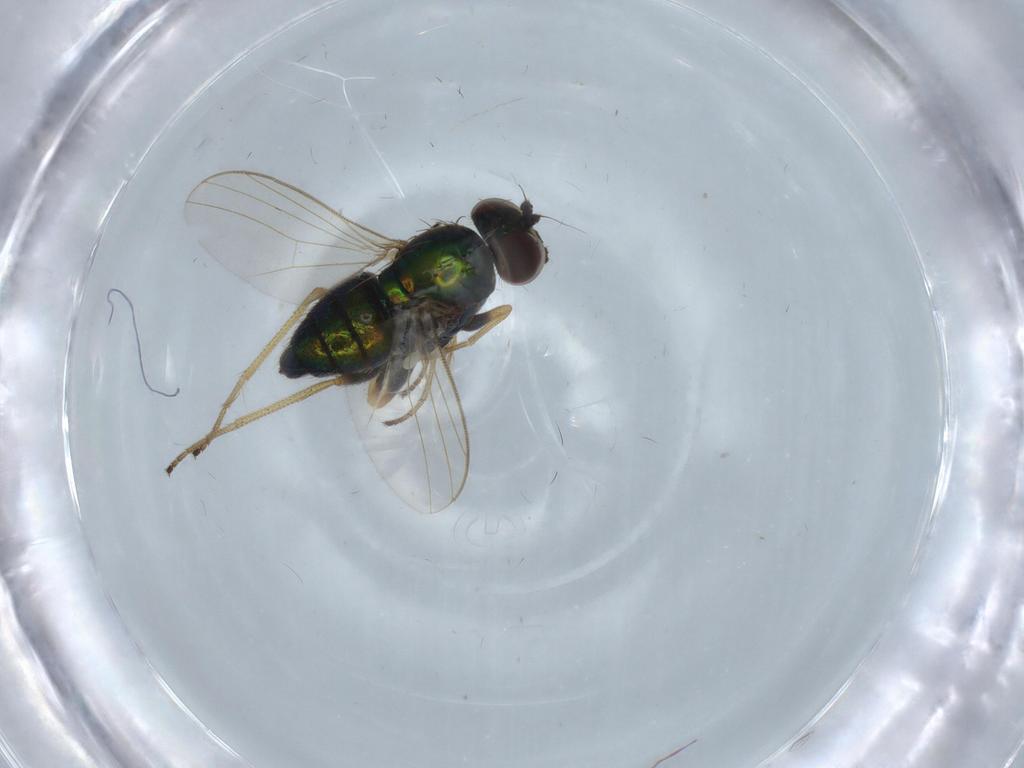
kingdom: Animalia
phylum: Arthropoda
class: Insecta
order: Diptera
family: Dolichopodidae
